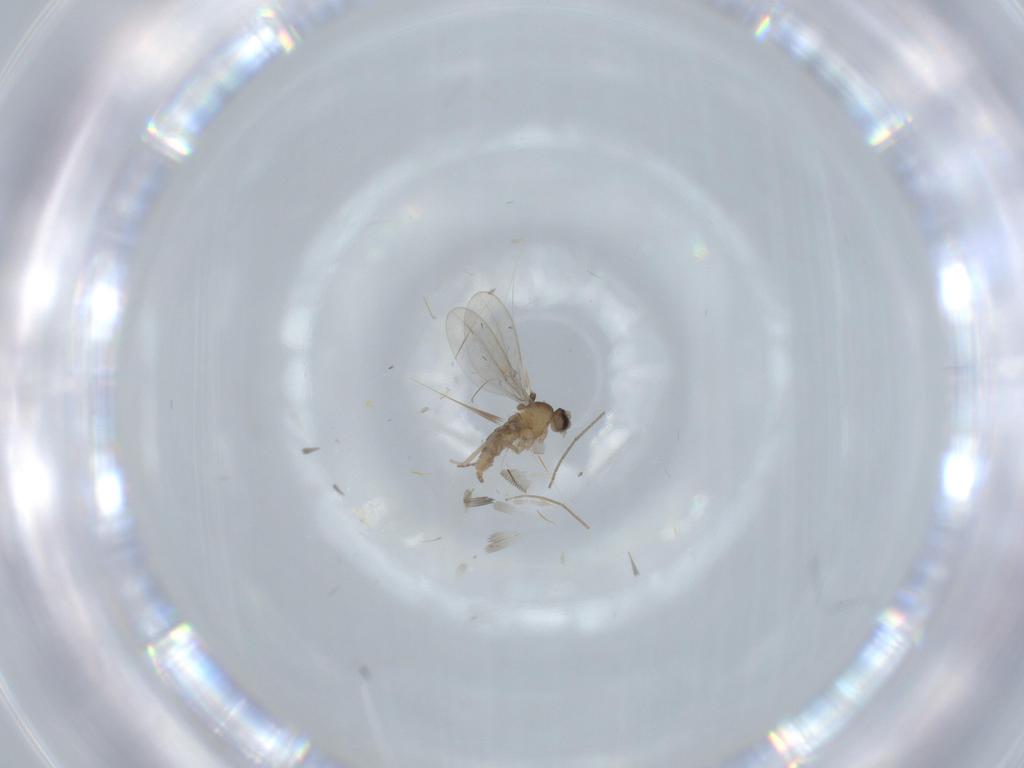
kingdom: Animalia
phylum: Arthropoda
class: Insecta
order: Diptera
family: Cecidomyiidae
